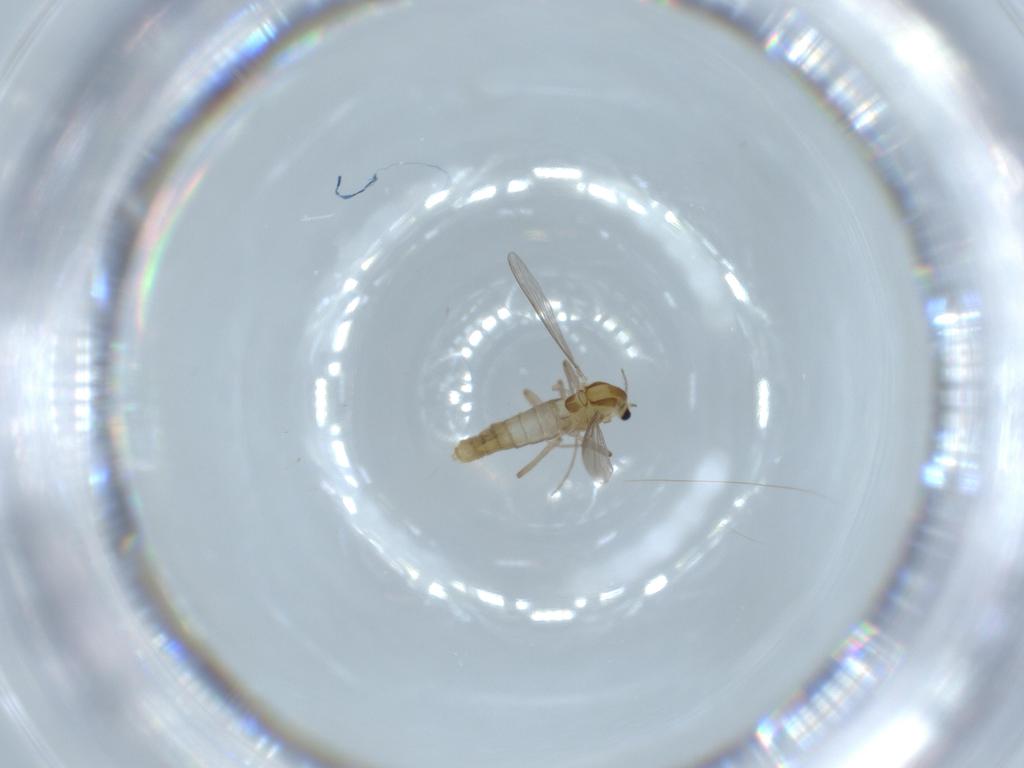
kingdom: Animalia
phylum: Arthropoda
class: Insecta
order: Diptera
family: Chironomidae
